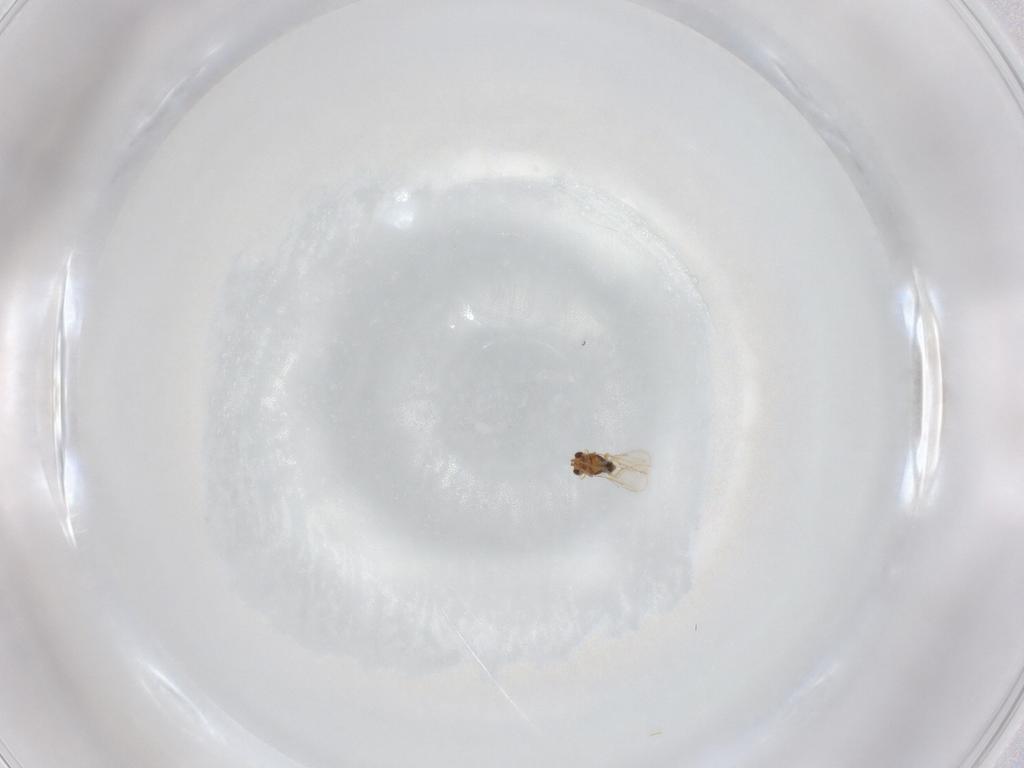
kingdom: Animalia
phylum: Arthropoda
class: Insecta
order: Hymenoptera
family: Aphelinidae
